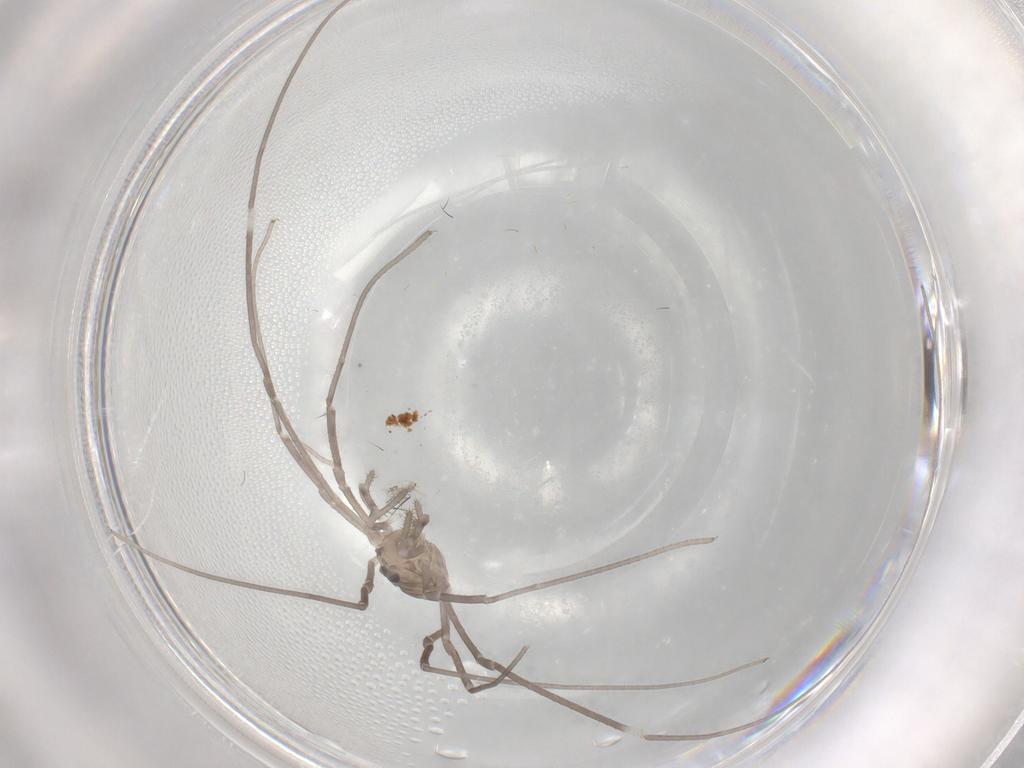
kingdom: Animalia
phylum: Arthropoda
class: Arachnida
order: Opiliones
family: Sclerosomatidae
